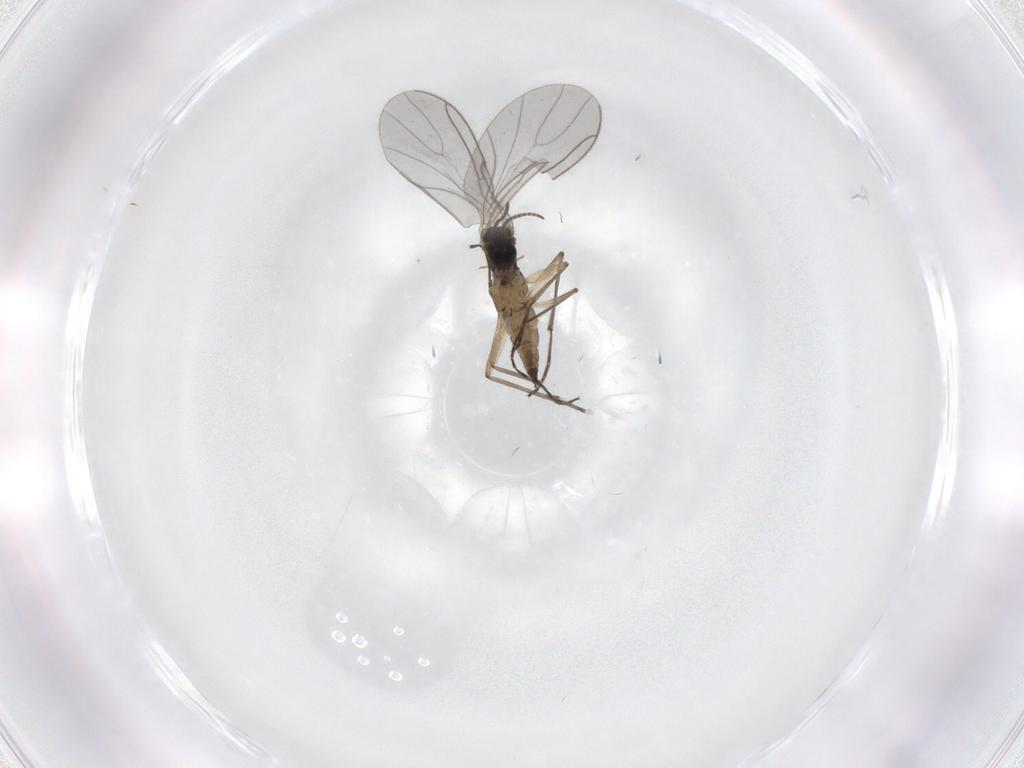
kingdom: Animalia
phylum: Arthropoda
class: Insecta
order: Diptera
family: Sciaridae
